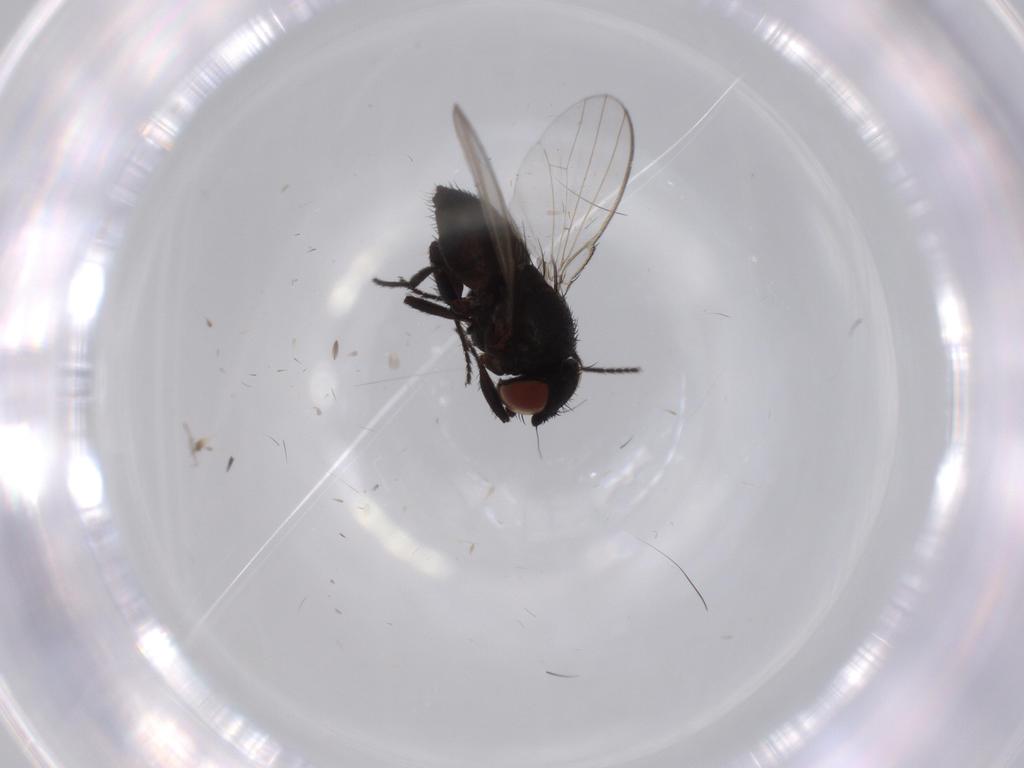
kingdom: Animalia
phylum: Arthropoda
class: Insecta
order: Diptera
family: Milichiidae
